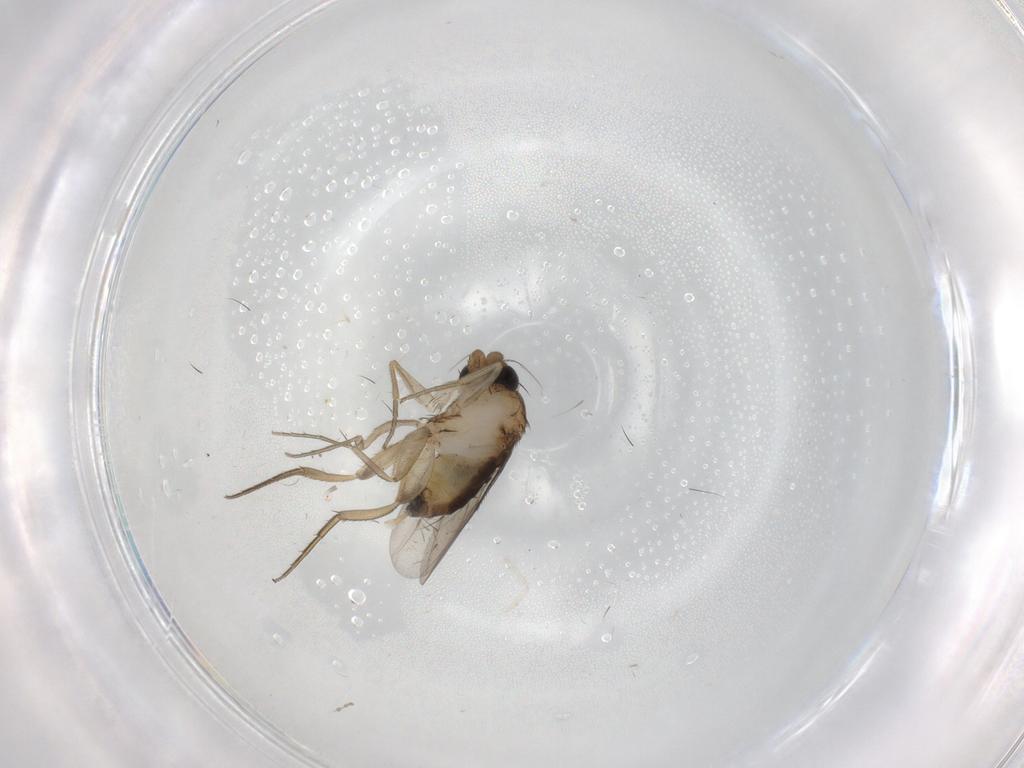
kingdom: Animalia
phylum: Arthropoda
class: Insecta
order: Diptera
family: Phoridae
